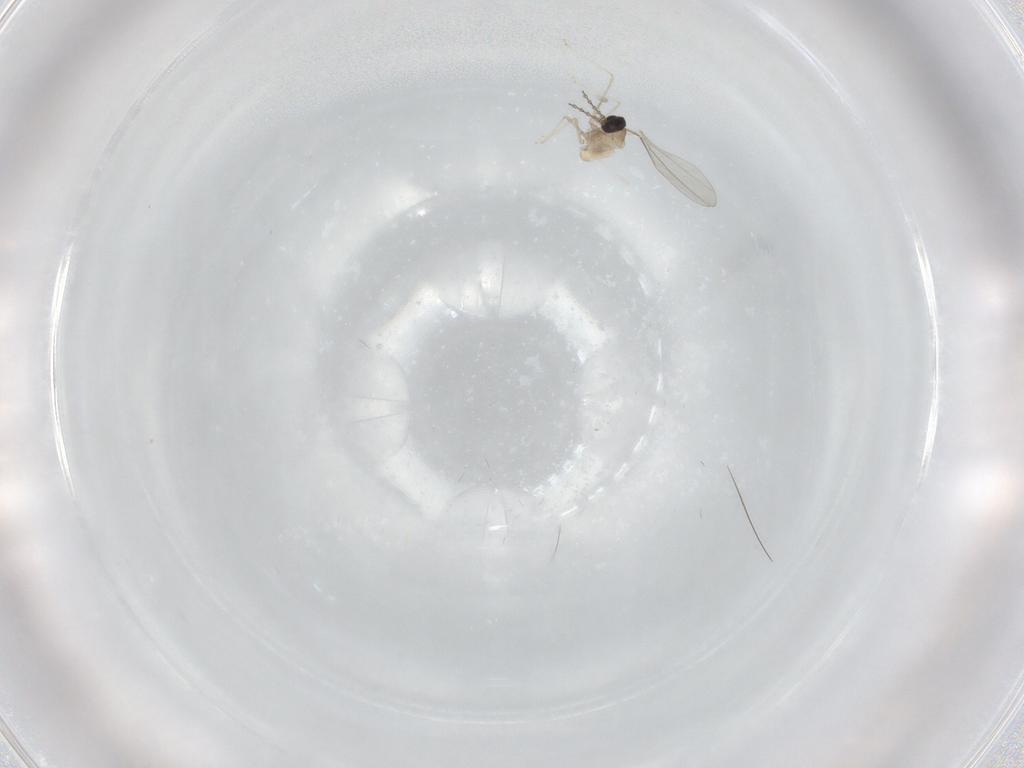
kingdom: Animalia
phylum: Arthropoda
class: Insecta
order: Diptera
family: Cecidomyiidae
